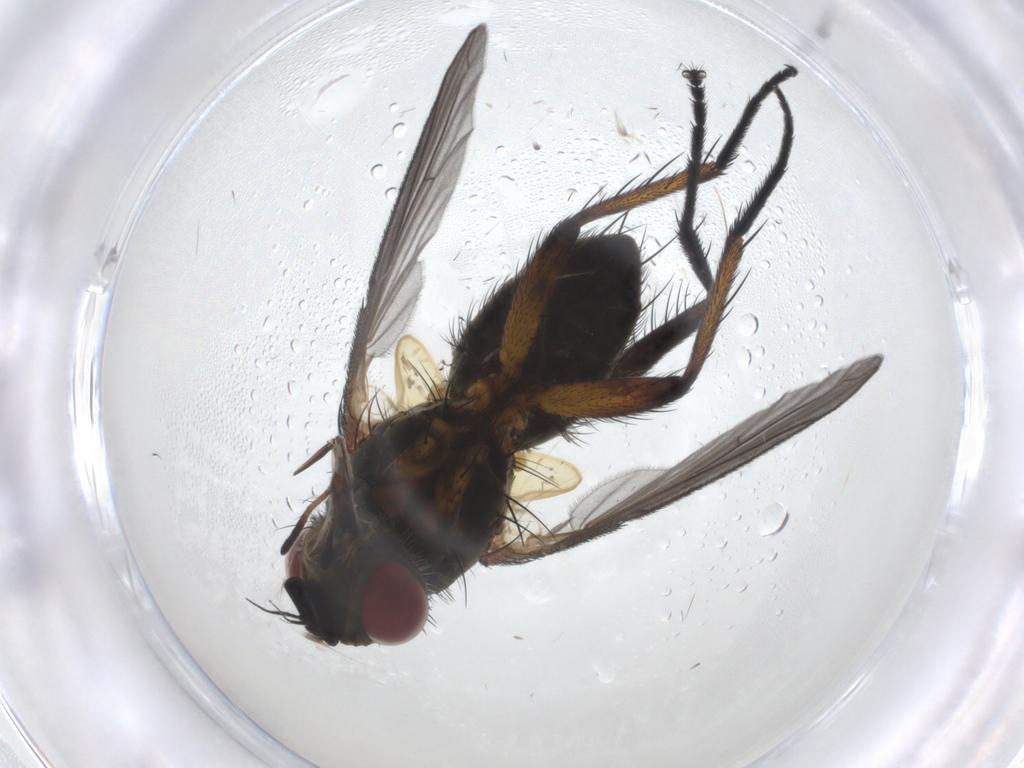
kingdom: Animalia
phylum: Arthropoda
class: Insecta
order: Diptera
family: Tachinidae
